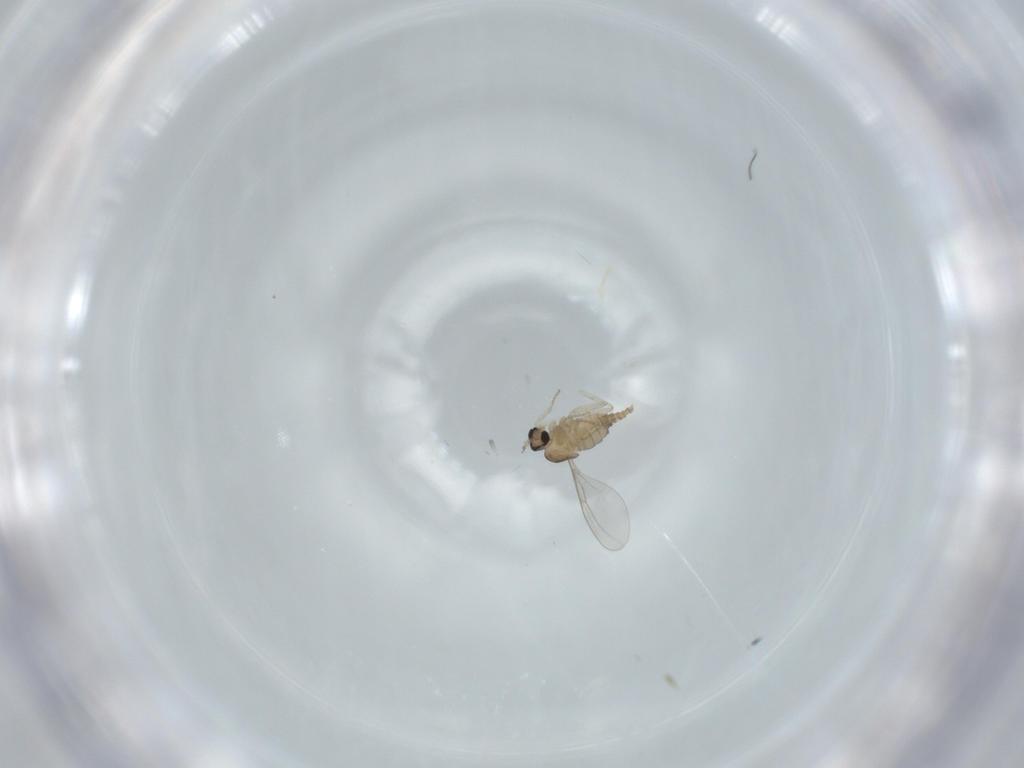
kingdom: Animalia
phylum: Arthropoda
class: Insecta
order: Diptera
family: Cecidomyiidae
